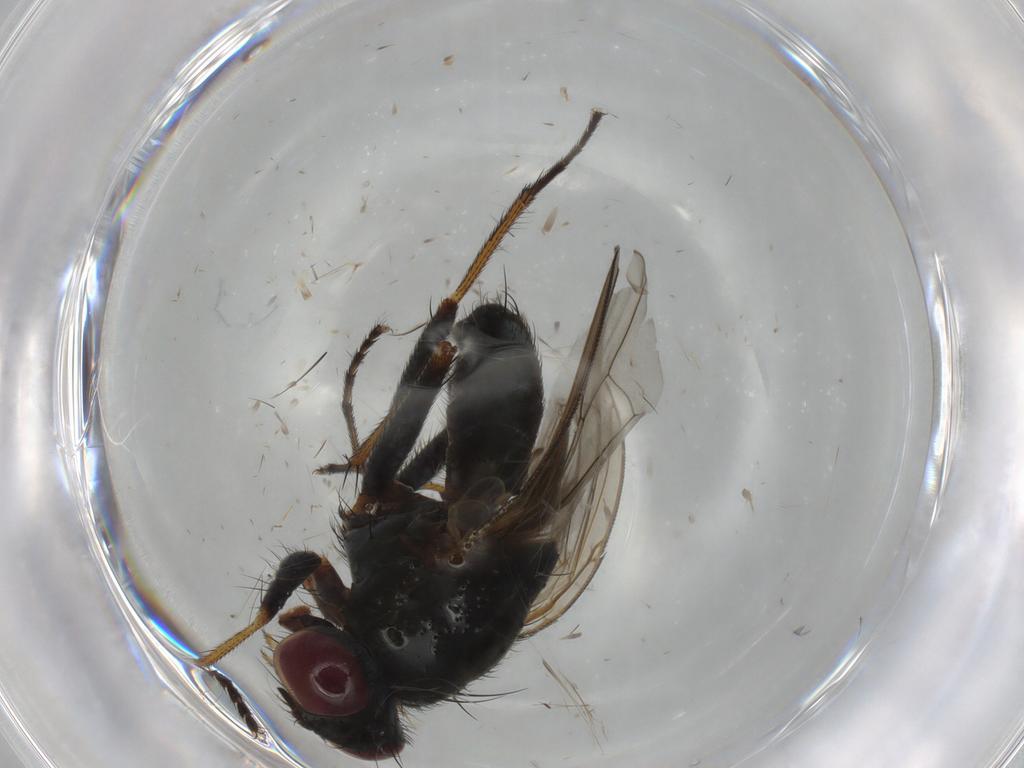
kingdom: Animalia
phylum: Arthropoda
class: Insecta
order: Diptera
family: Muscidae
